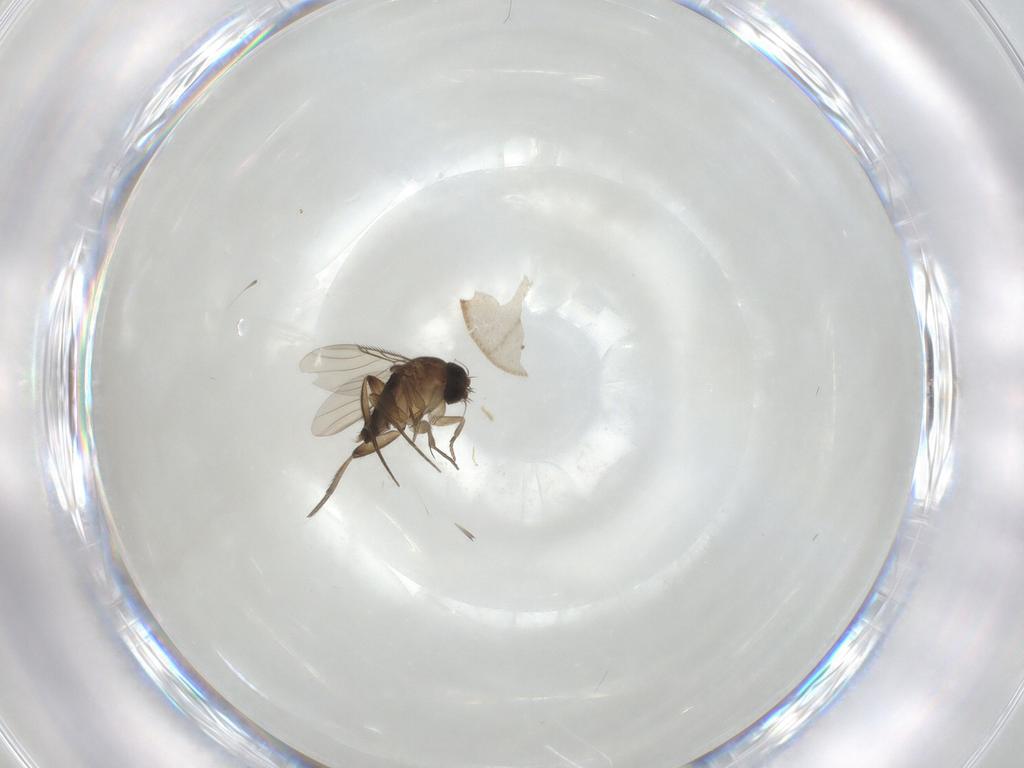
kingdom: Animalia
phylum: Arthropoda
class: Insecta
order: Diptera
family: Phoridae
